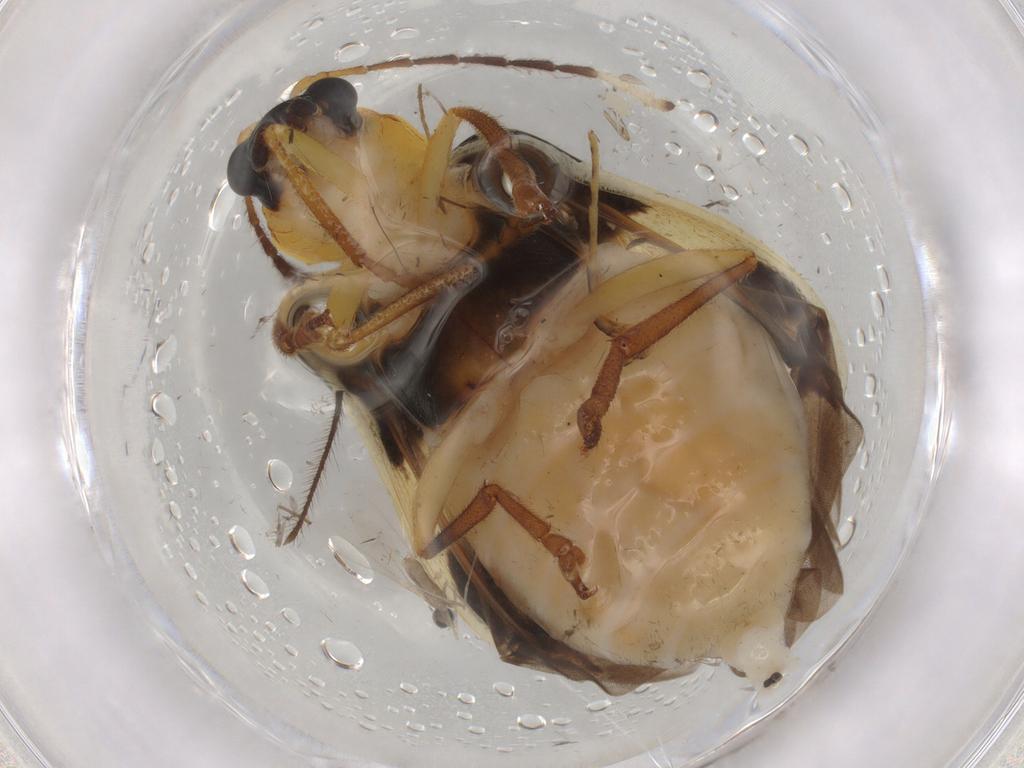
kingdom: Animalia
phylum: Arthropoda
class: Insecta
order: Coleoptera
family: Chrysomelidae
